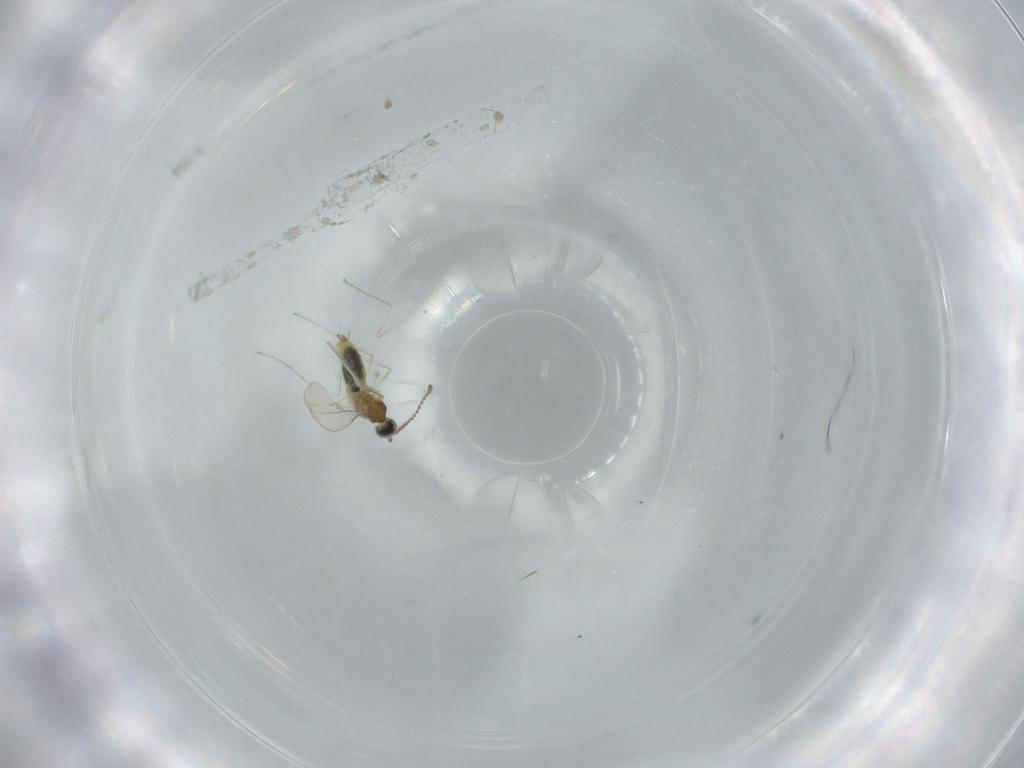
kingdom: Animalia
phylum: Arthropoda
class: Insecta
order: Diptera
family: Cecidomyiidae
